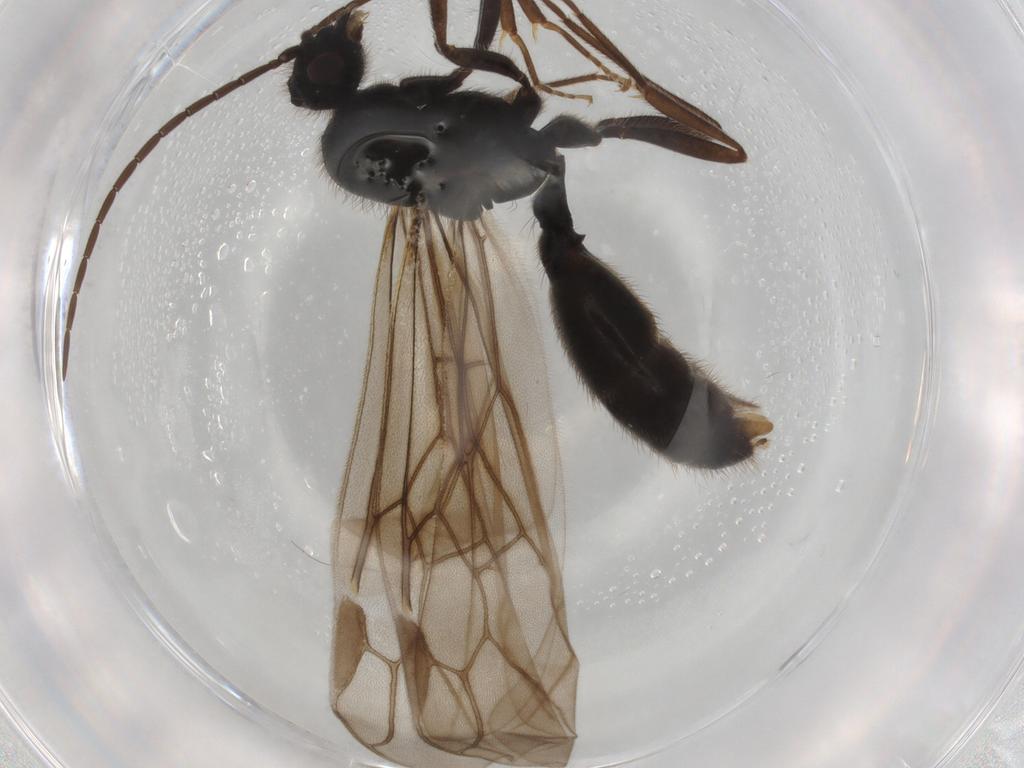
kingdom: Animalia
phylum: Arthropoda
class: Insecta
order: Hymenoptera
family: Formicidae
